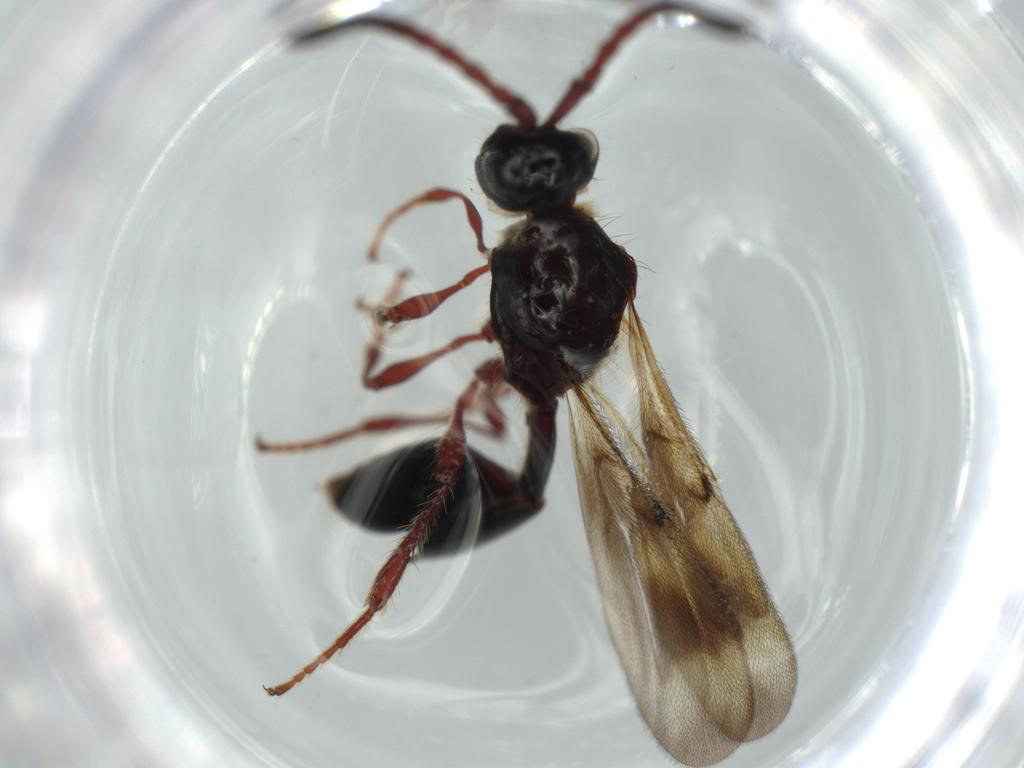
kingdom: Animalia
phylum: Arthropoda
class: Insecta
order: Hymenoptera
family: Diapriidae
